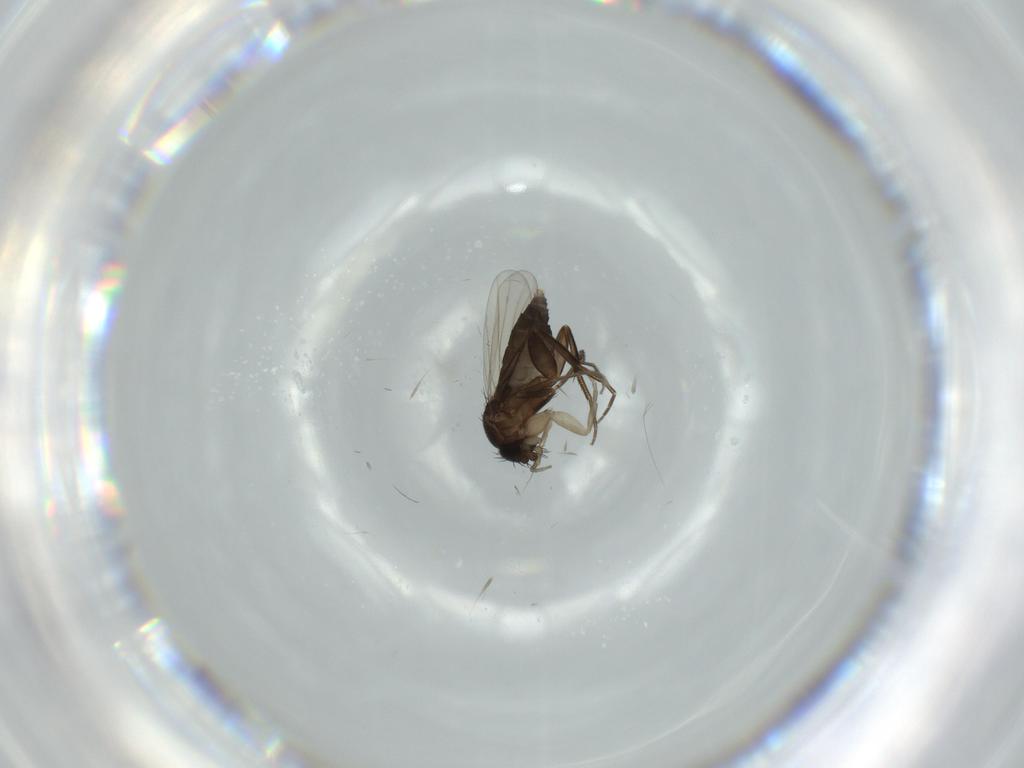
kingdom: Animalia
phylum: Arthropoda
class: Insecta
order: Diptera
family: Phoridae
